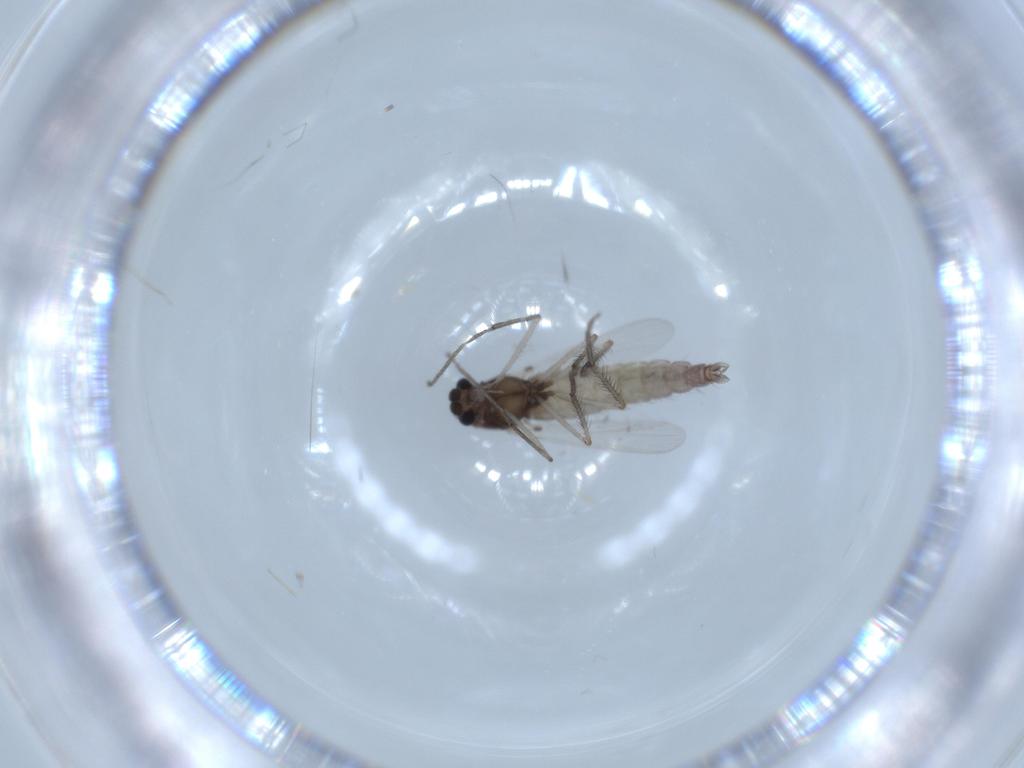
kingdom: Animalia
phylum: Arthropoda
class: Insecta
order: Diptera
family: Chironomidae
